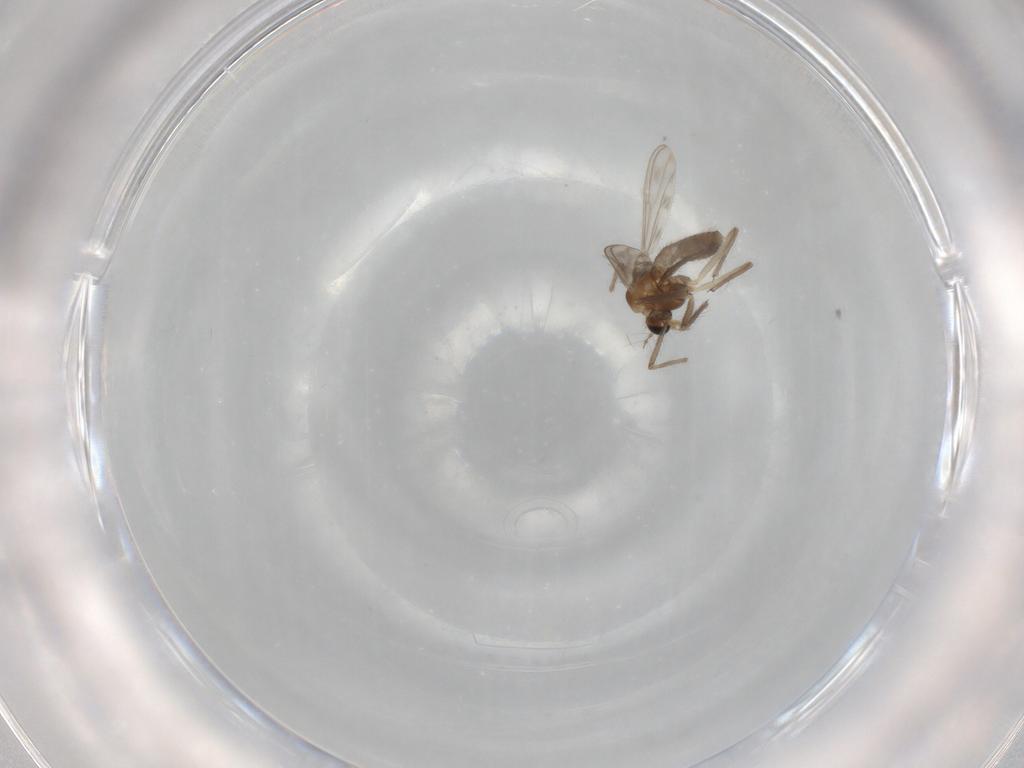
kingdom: Animalia
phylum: Arthropoda
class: Insecta
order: Diptera
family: Chironomidae
